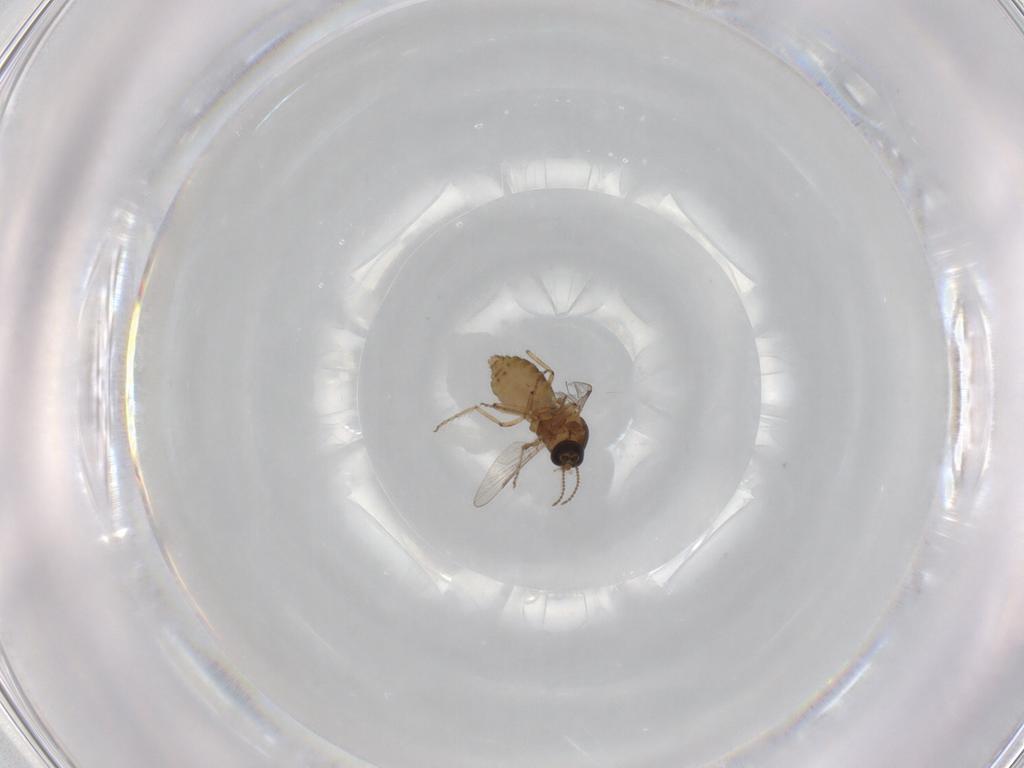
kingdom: Animalia
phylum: Arthropoda
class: Insecta
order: Diptera
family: Ceratopogonidae
